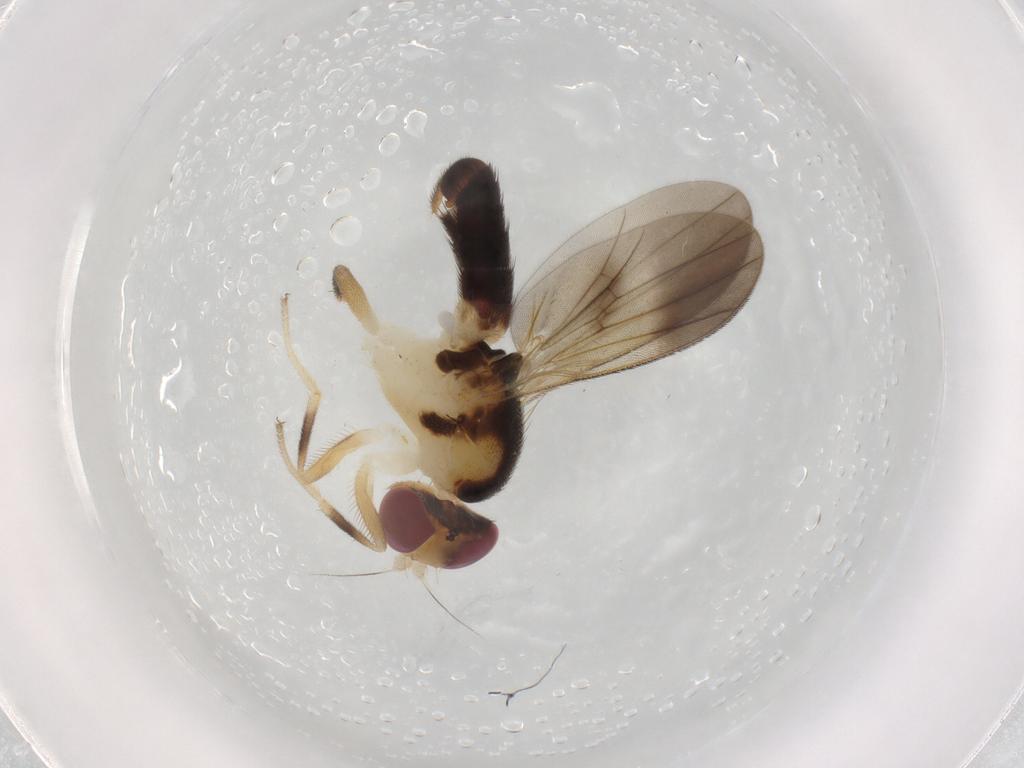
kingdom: Animalia
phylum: Arthropoda
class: Insecta
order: Diptera
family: Clusiidae
